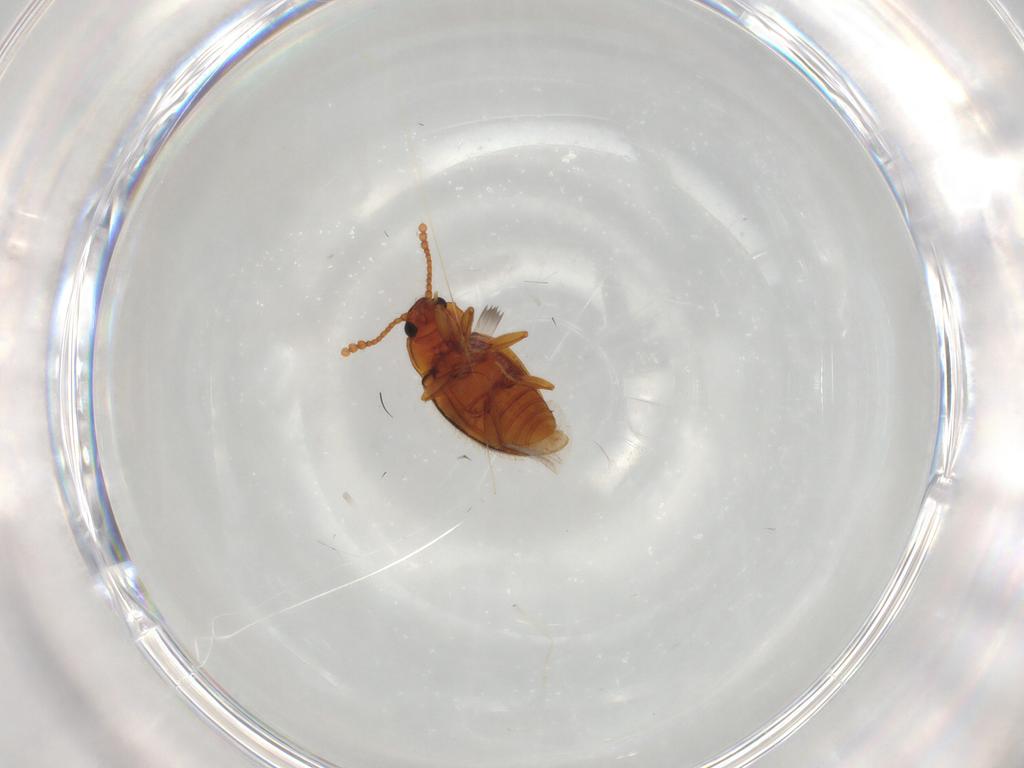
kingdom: Animalia
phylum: Arthropoda
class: Insecta
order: Coleoptera
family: Erotylidae
